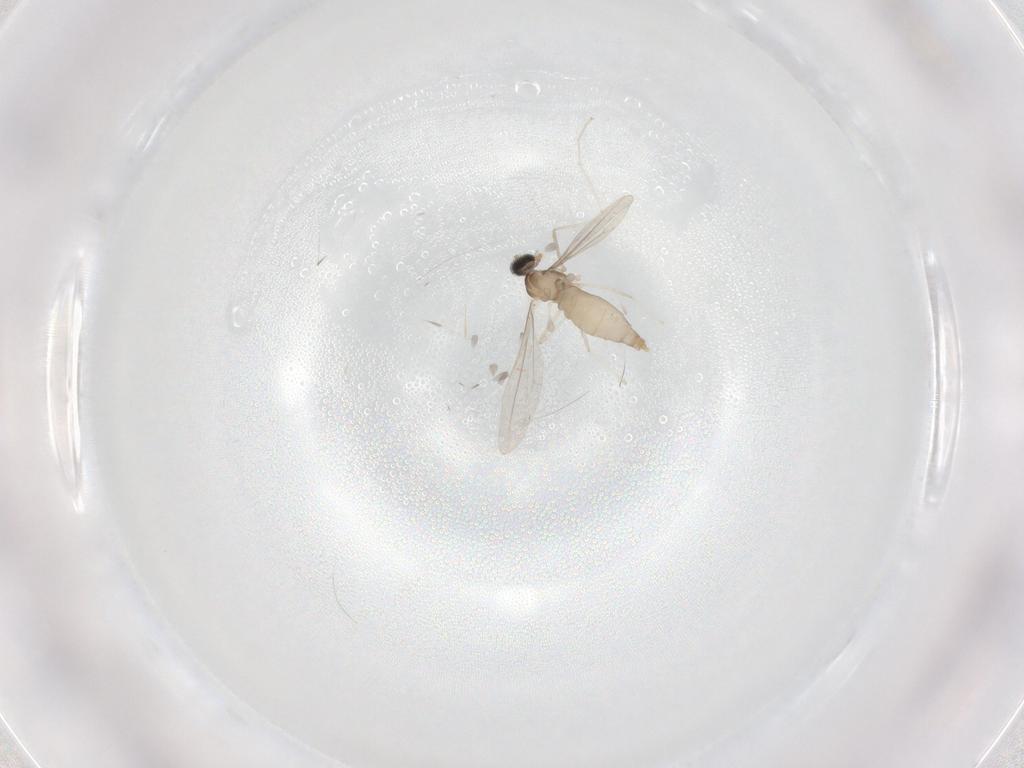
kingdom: Animalia
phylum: Arthropoda
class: Insecta
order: Diptera
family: Cecidomyiidae
